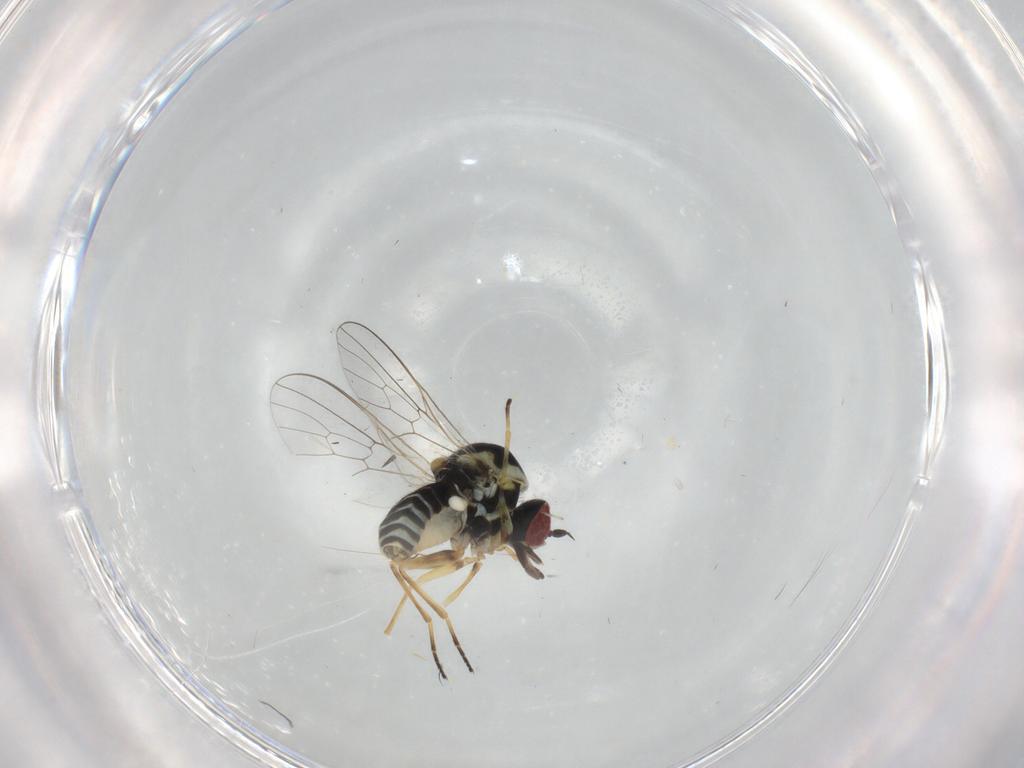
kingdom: Animalia
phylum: Arthropoda
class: Insecta
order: Diptera
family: Bombyliidae
